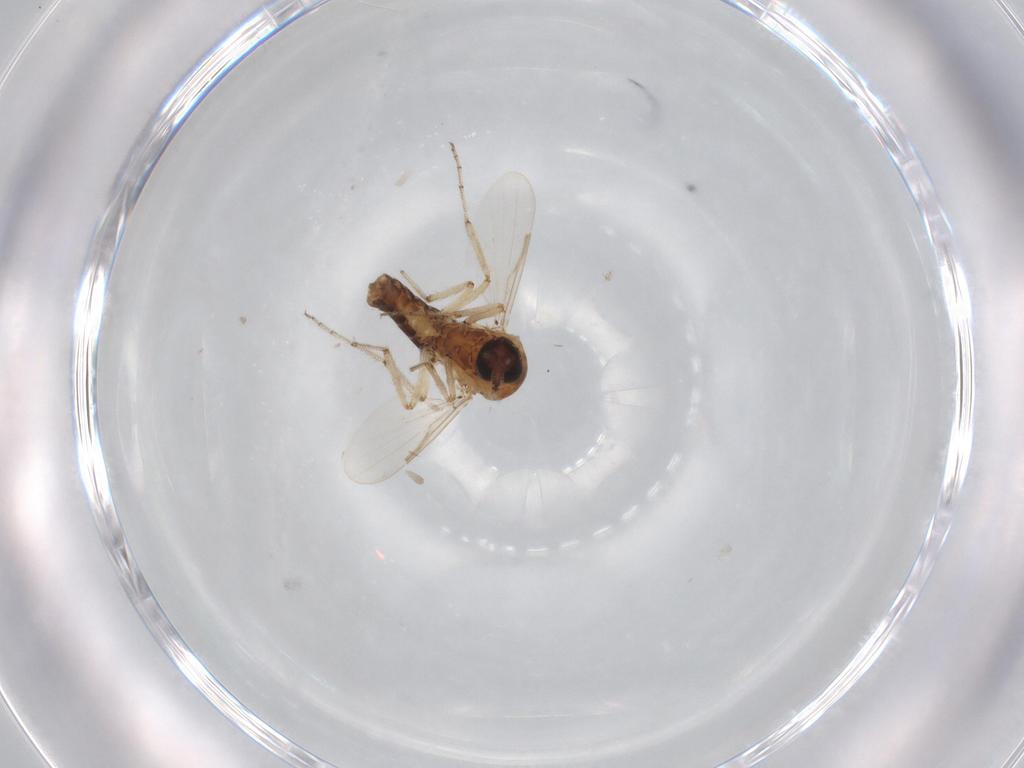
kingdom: Animalia
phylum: Arthropoda
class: Insecta
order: Diptera
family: Ceratopogonidae
